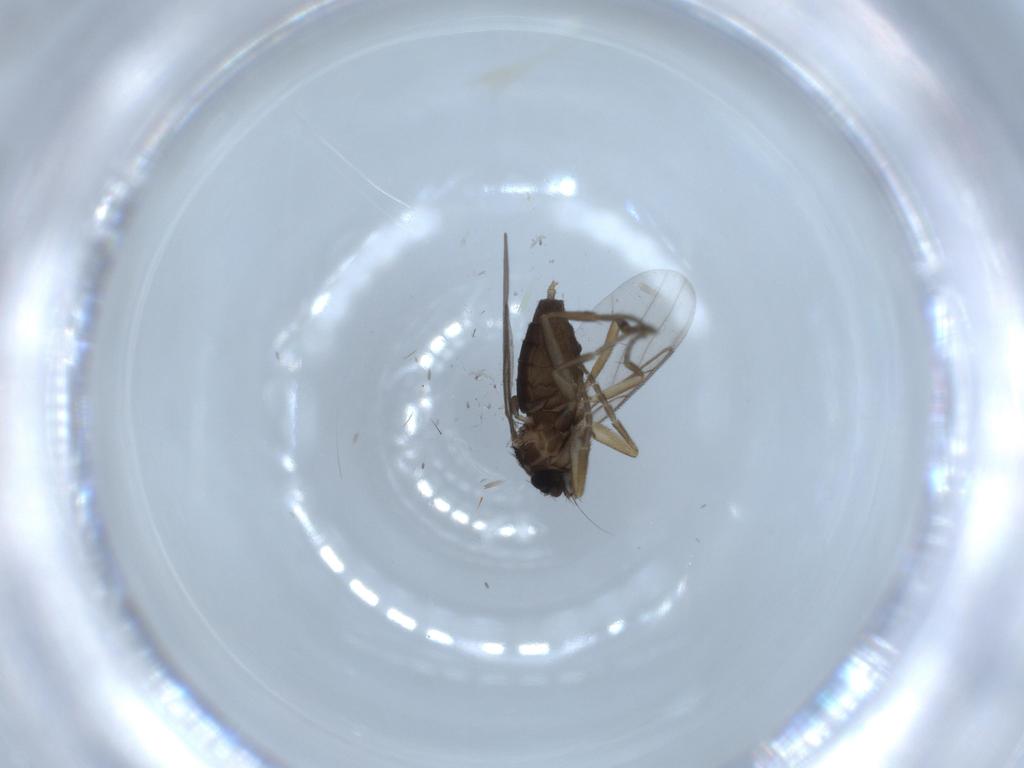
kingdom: Animalia
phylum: Arthropoda
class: Insecta
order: Diptera
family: Phoridae
